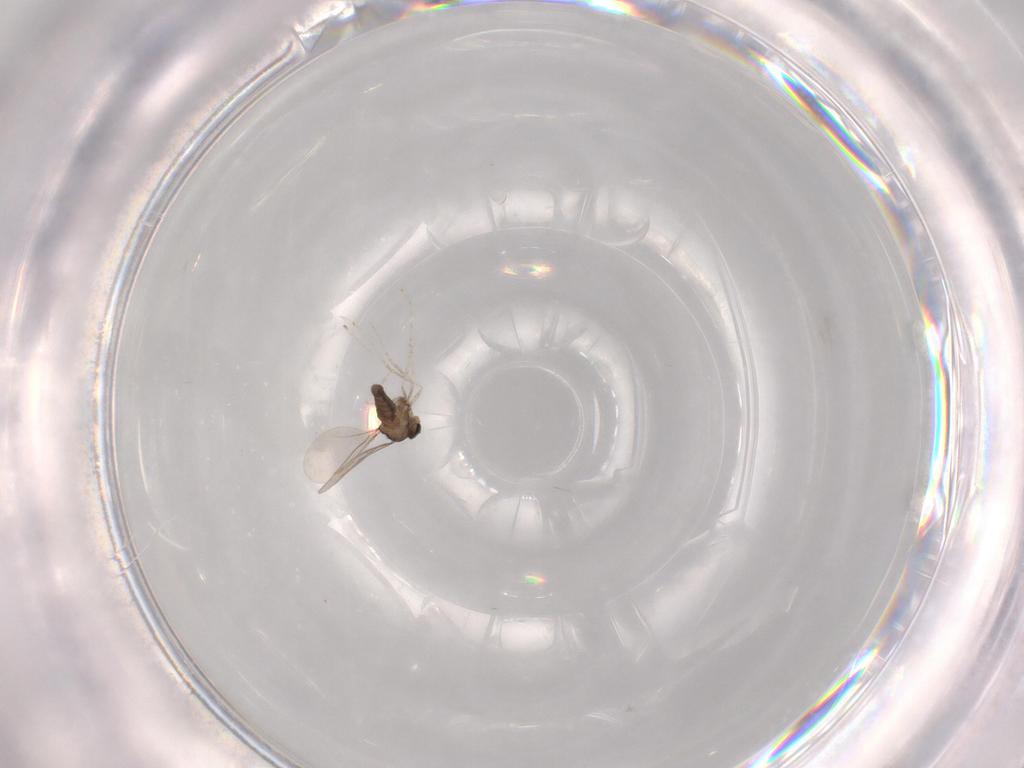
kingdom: Animalia
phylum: Arthropoda
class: Insecta
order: Diptera
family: Cecidomyiidae
